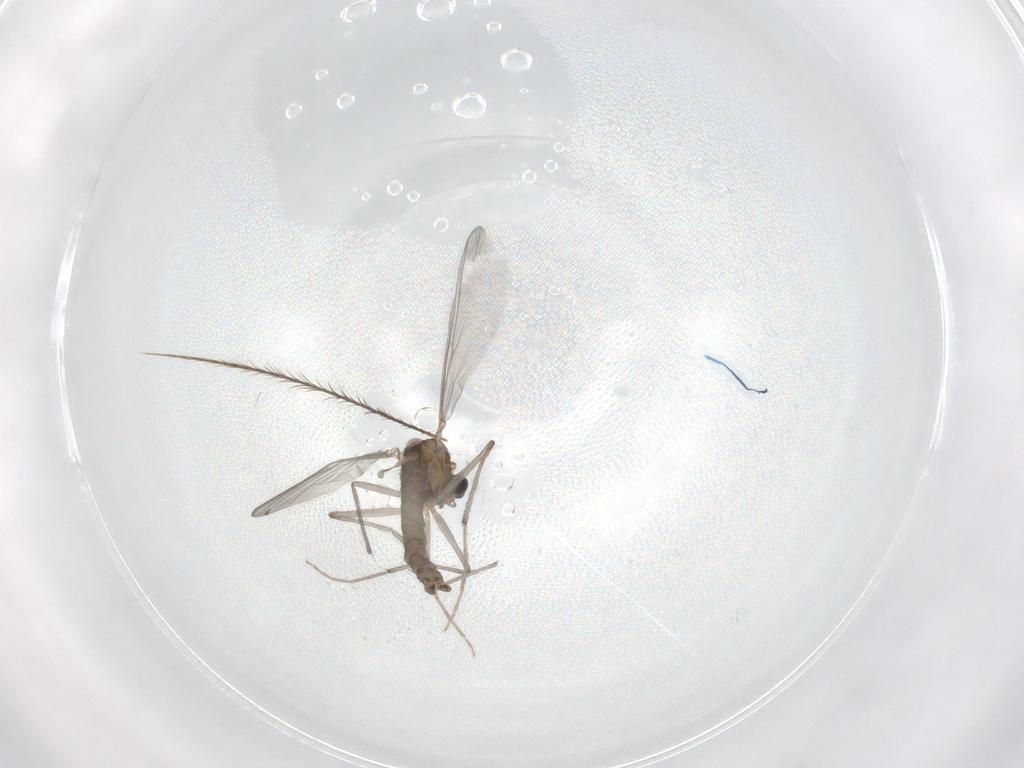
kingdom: Animalia
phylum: Arthropoda
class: Insecta
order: Diptera
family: Chironomidae
